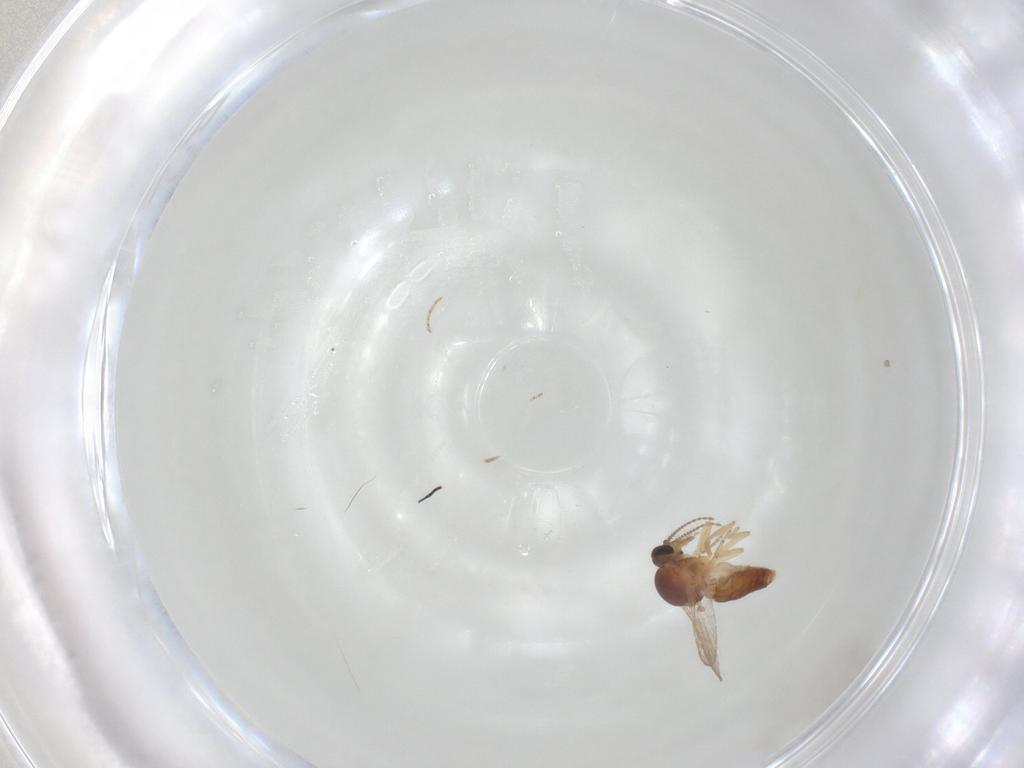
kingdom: Animalia
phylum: Arthropoda
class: Insecta
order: Diptera
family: Ceratopogonidae
